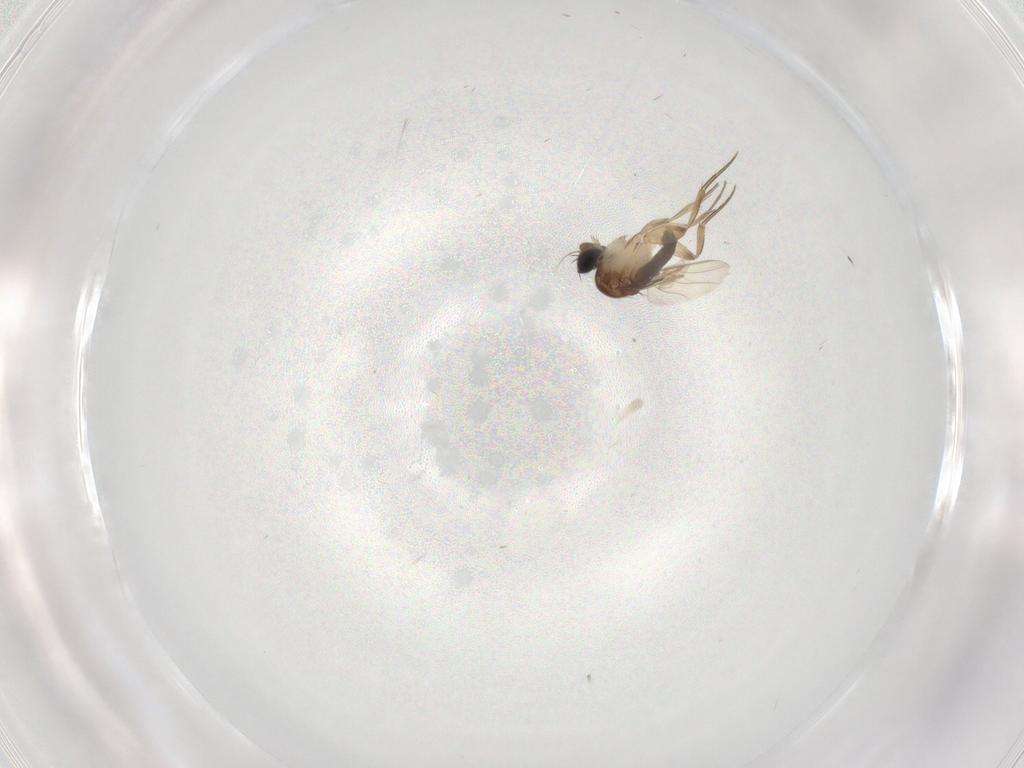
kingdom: Animalia
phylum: Arthropoda
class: Insecta
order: Diptera
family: Phoridae
